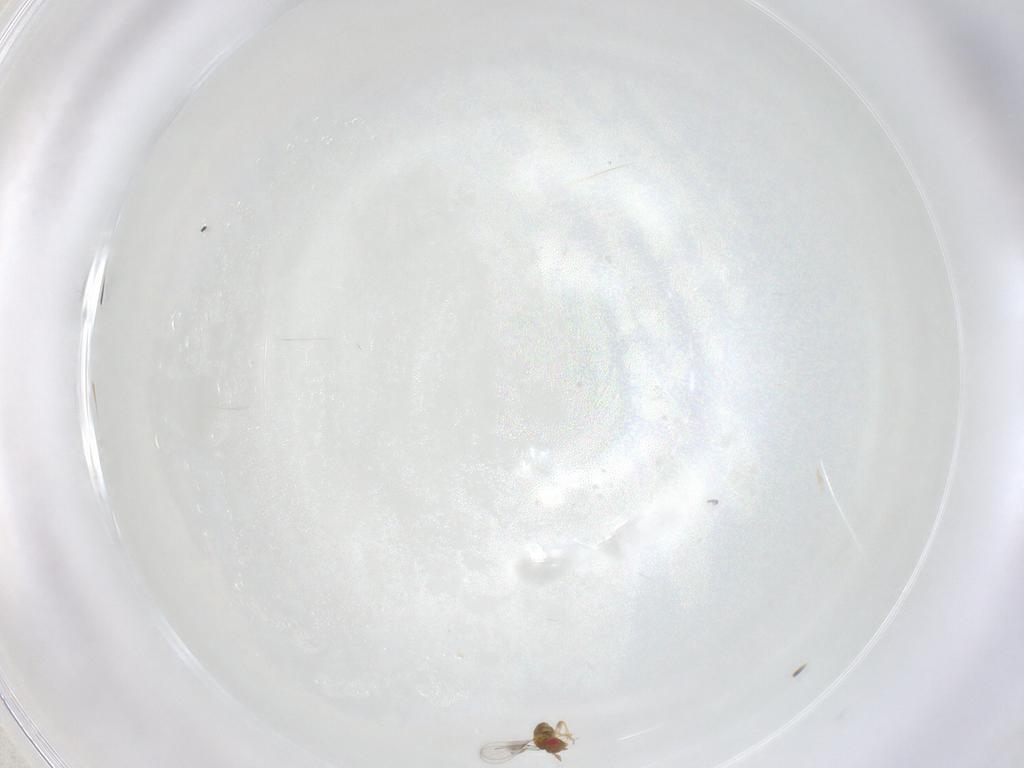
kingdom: Animalia
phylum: Arthropoda
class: Insecta
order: Hymenoptera
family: Trichogrammatidae
